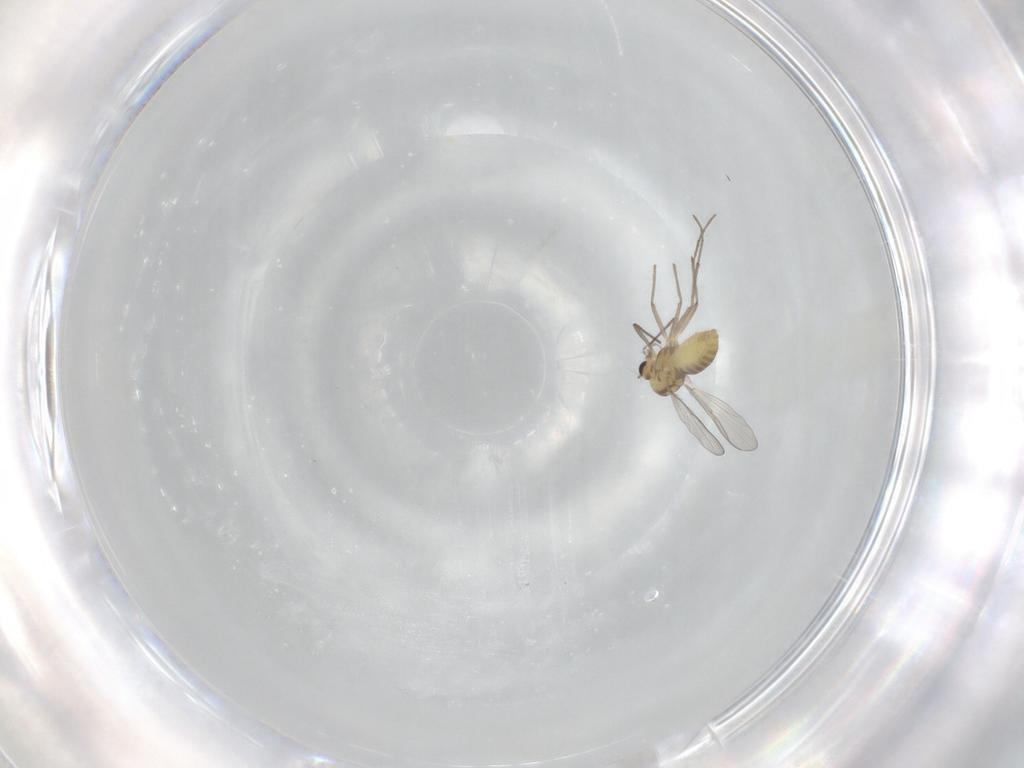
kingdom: Animalia
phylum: Arthropoda
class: Insecta
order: Diptera
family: Chironomidae
